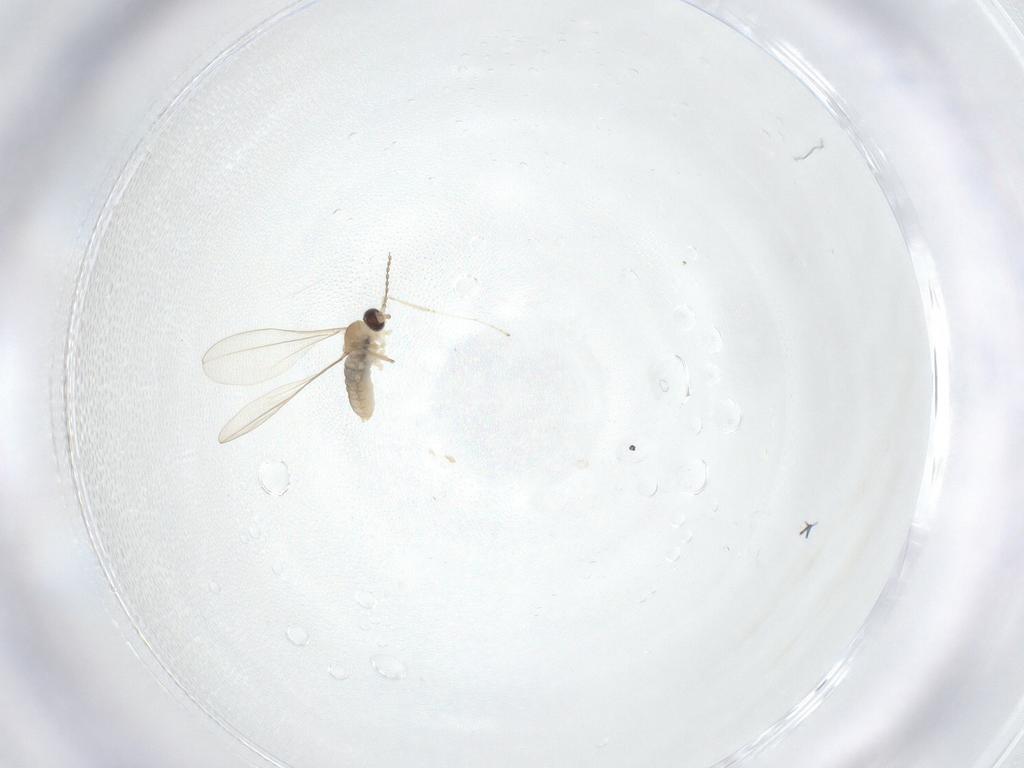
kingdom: Animalia
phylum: Arthropoda
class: Insecta
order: Diptera
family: Cecidomyiidae
